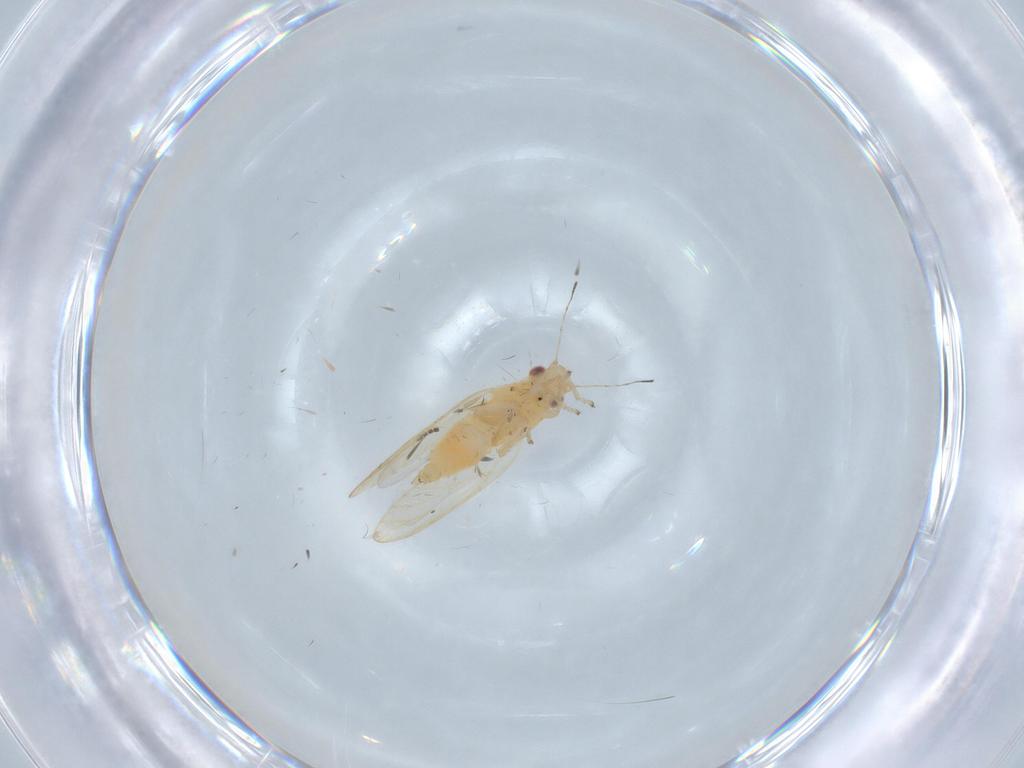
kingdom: Animalia
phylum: Arthropoda
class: Insecta
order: Hemiptera
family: Triozidae
